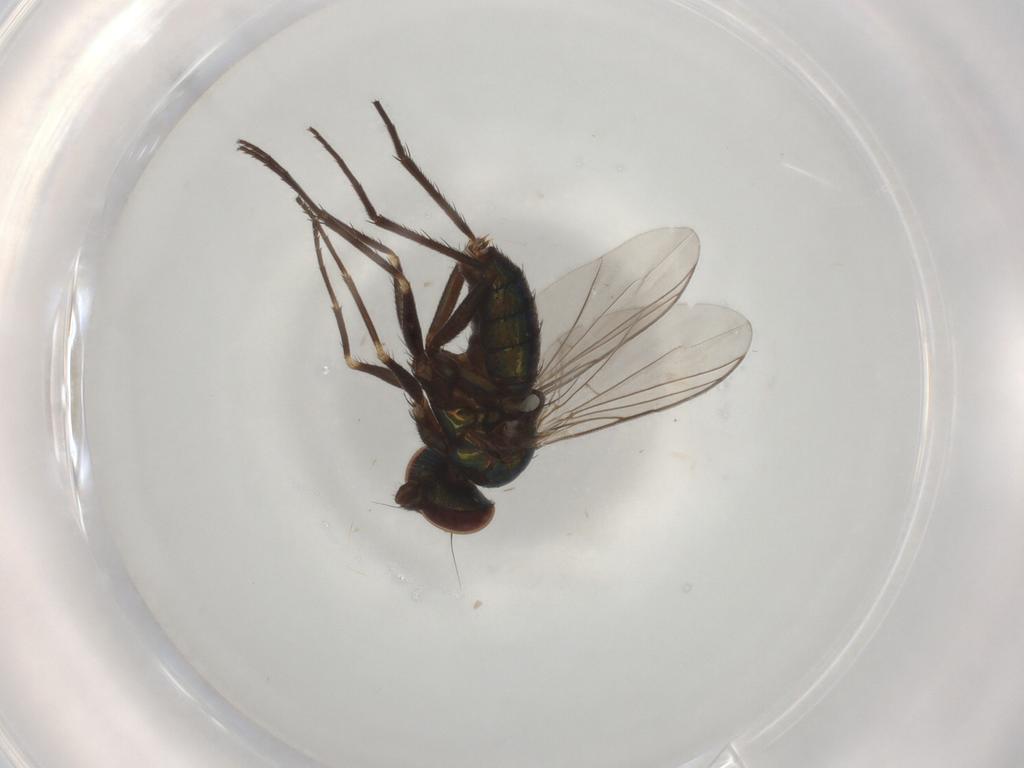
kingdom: Animalia
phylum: Arthropoda
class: Insecta
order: Diptera
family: Dolichopodidae
